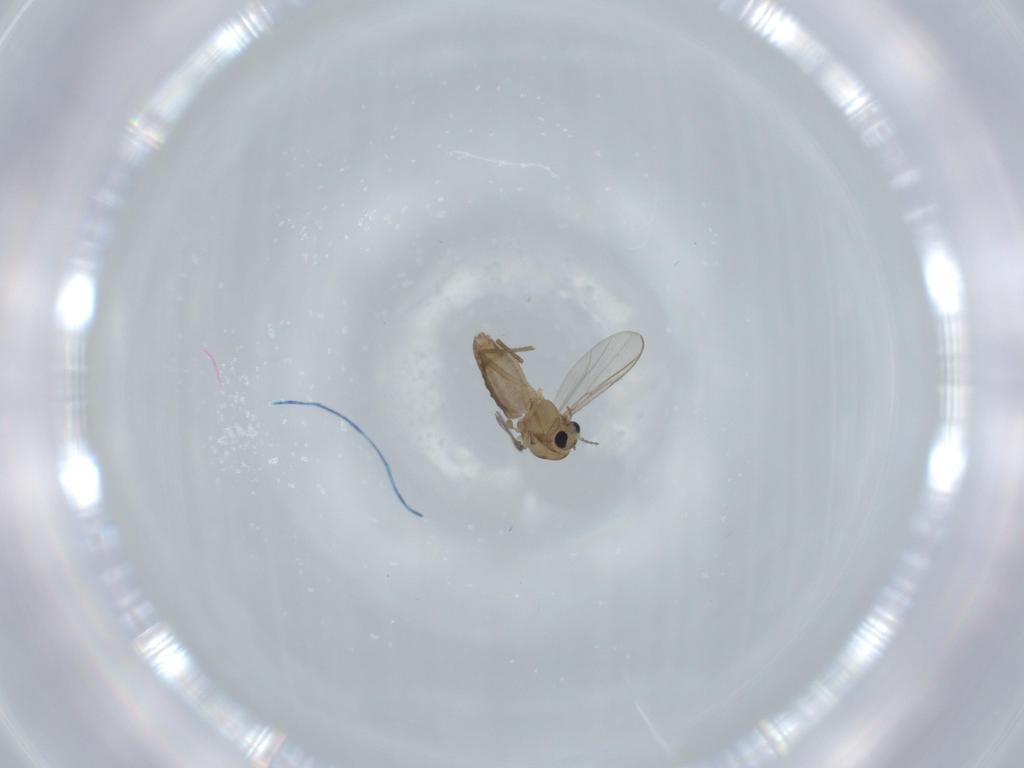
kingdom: Animalia
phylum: Arthropoda
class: Insecta
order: Diptera
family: Chironomidae
